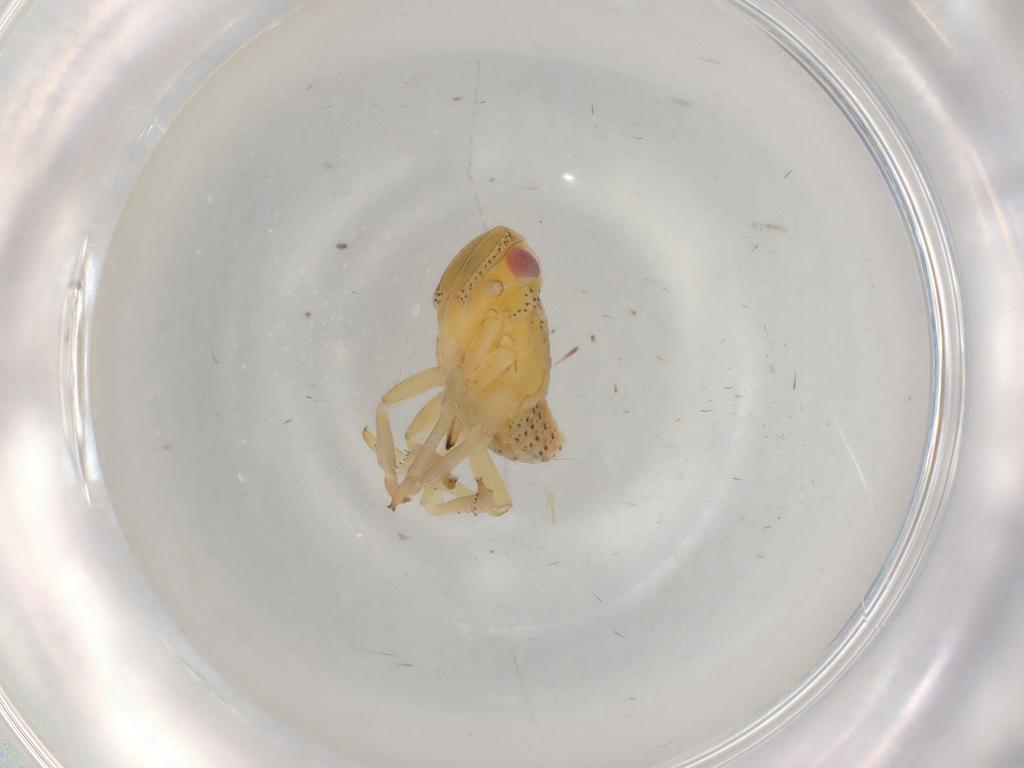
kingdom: Animalia
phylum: Arthropoda
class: Insecta
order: Hemiptera
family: Tropiduchidae
